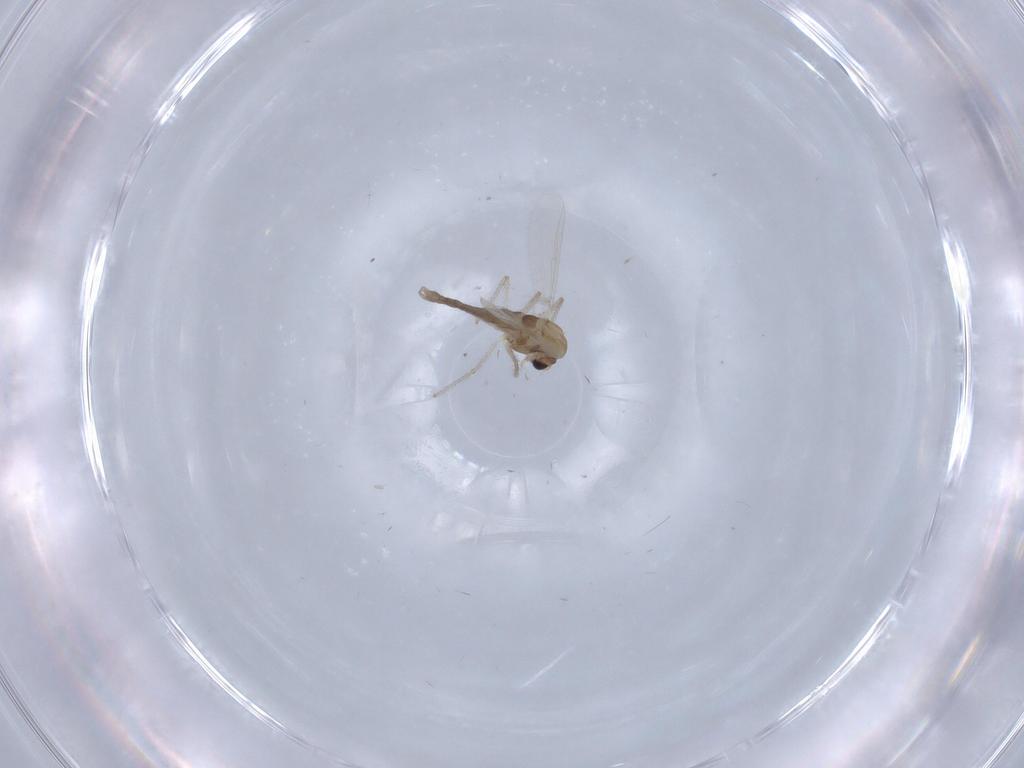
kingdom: Animalia
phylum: Arthropoda
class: Insecta
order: Diptera
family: Chironomidae
